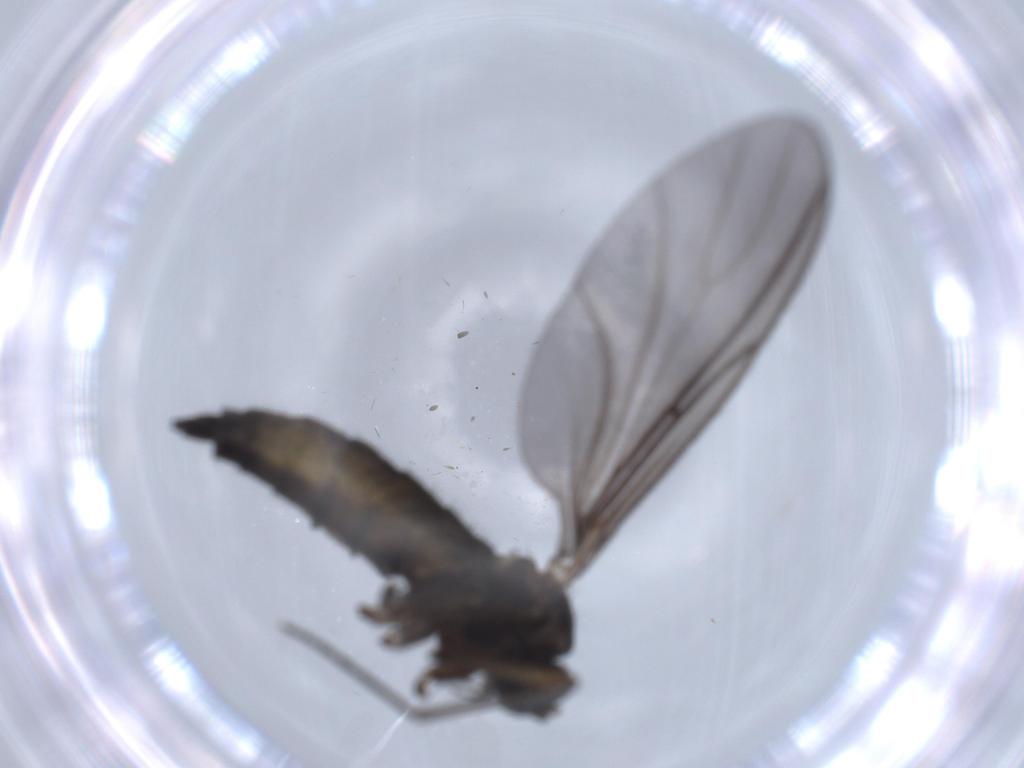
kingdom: Animalia
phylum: Arthropoda
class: Insecta
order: Diptera
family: Sciaridae
